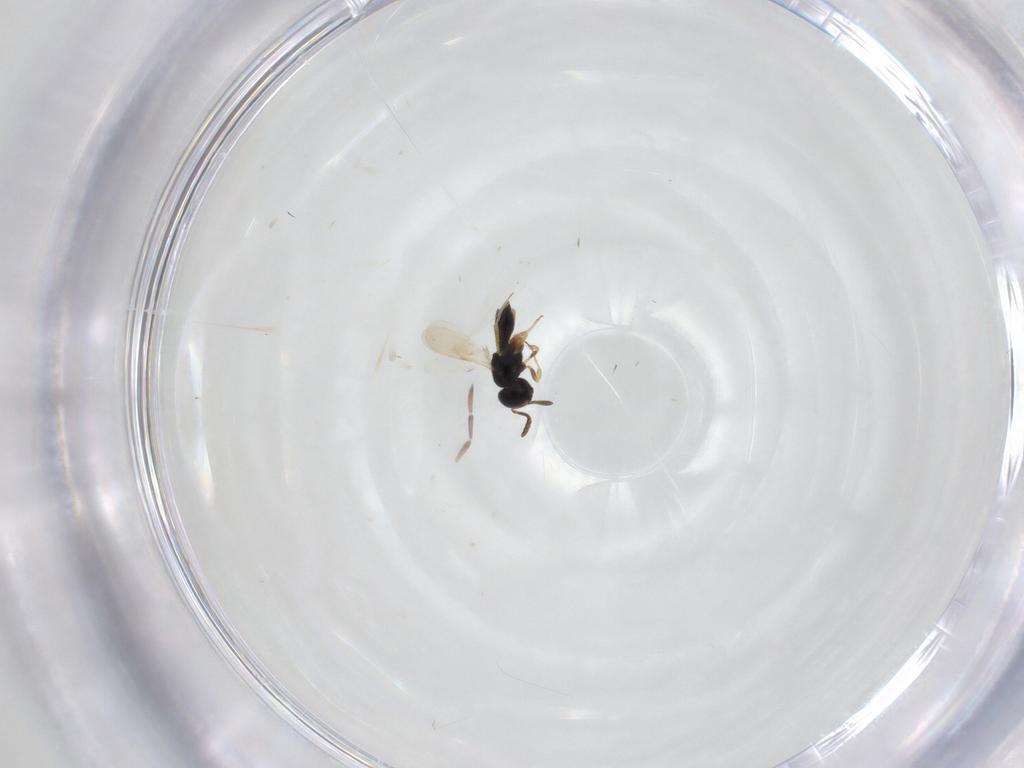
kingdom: Animalia
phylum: Arthropoda
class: Insecta
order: Hymenoptera
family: Scelionidae
